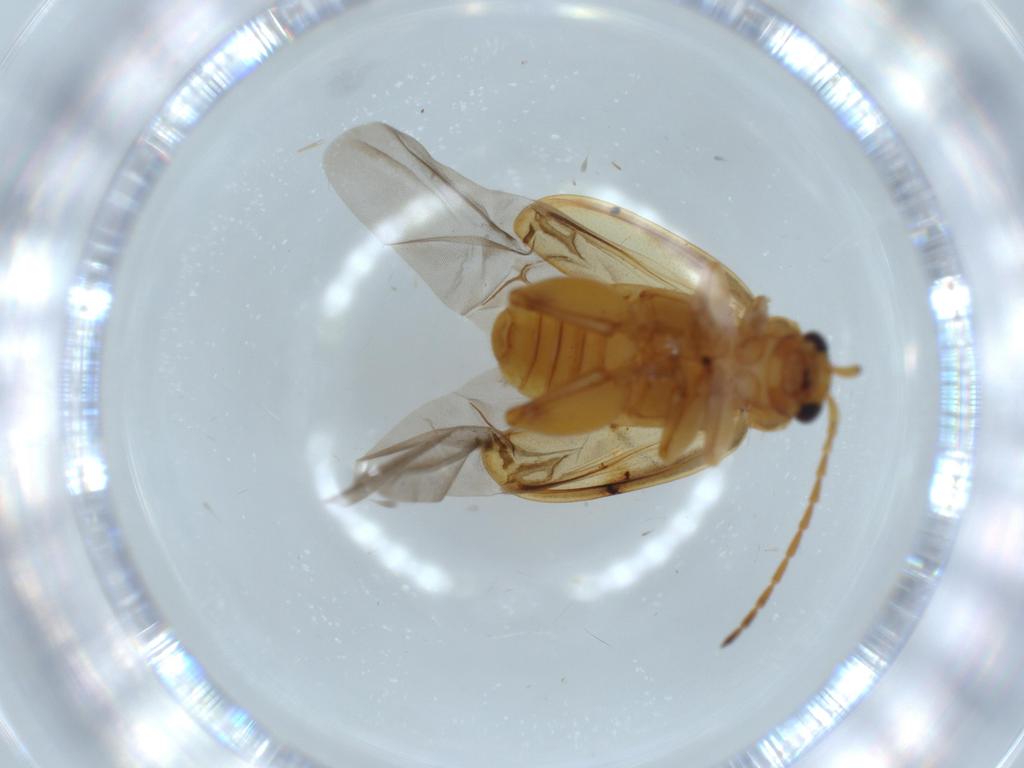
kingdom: Animalia
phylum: Arthropoda
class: Insecta
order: Coleoptera
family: Chrysomelidae
